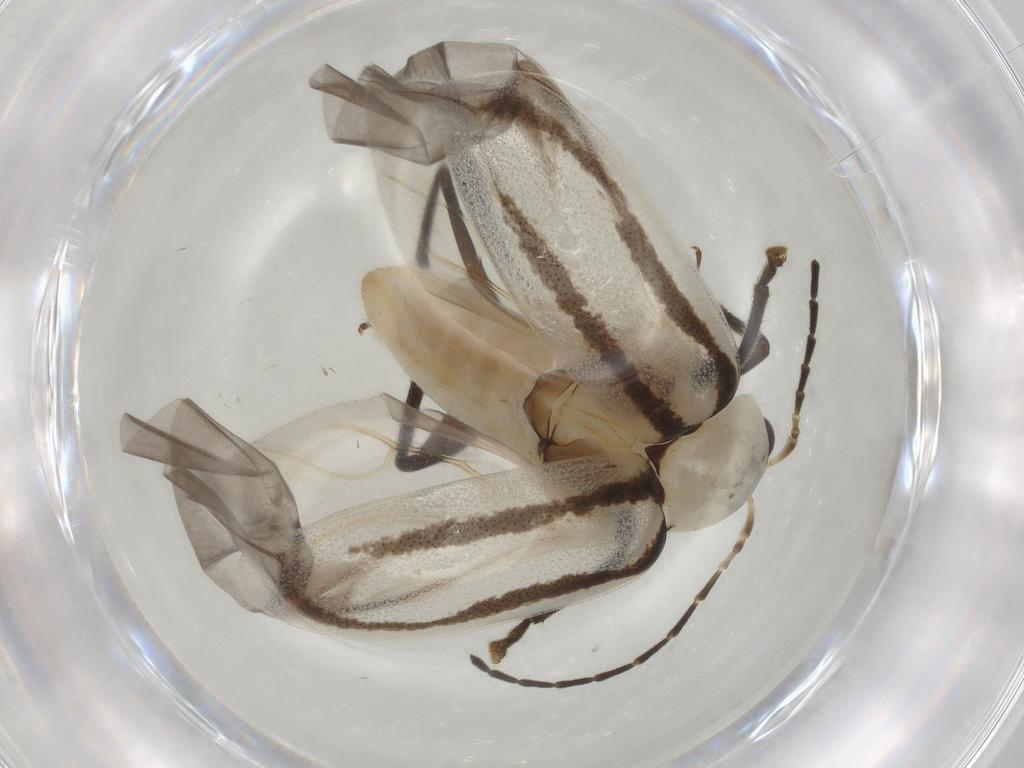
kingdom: Animalia
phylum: Arthropoda
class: Insecta
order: Coleoptera
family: Chrysomelidae
